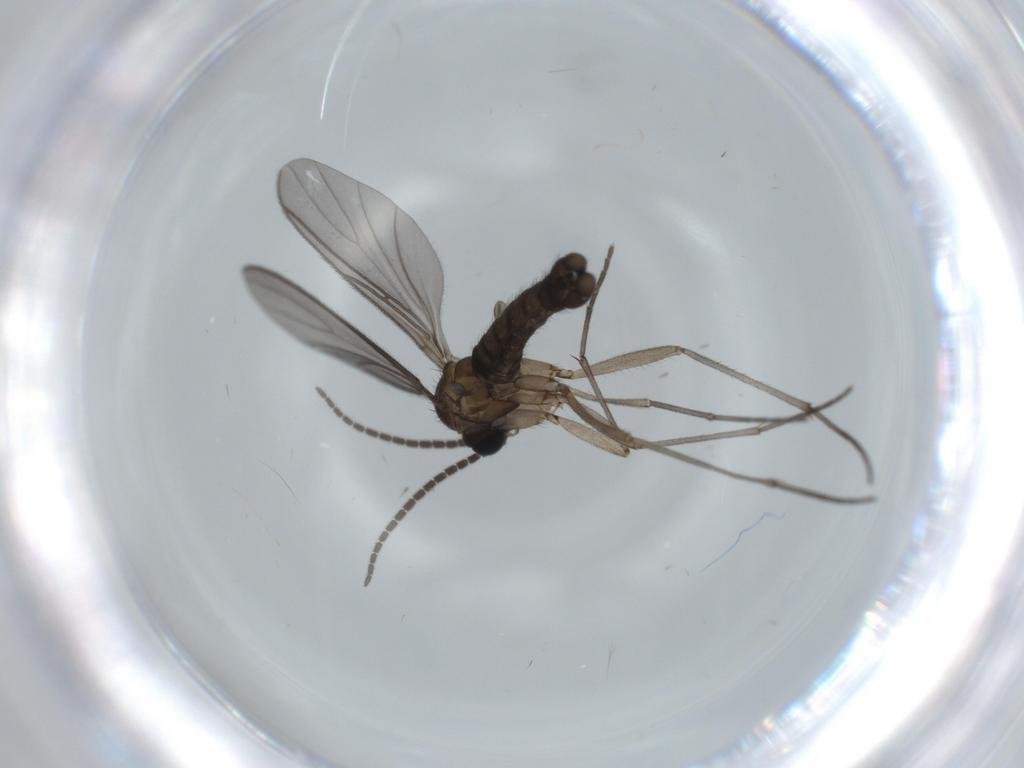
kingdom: Animalia
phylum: Arthropoda
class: Insecta
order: Diptera
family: Sciaridae
